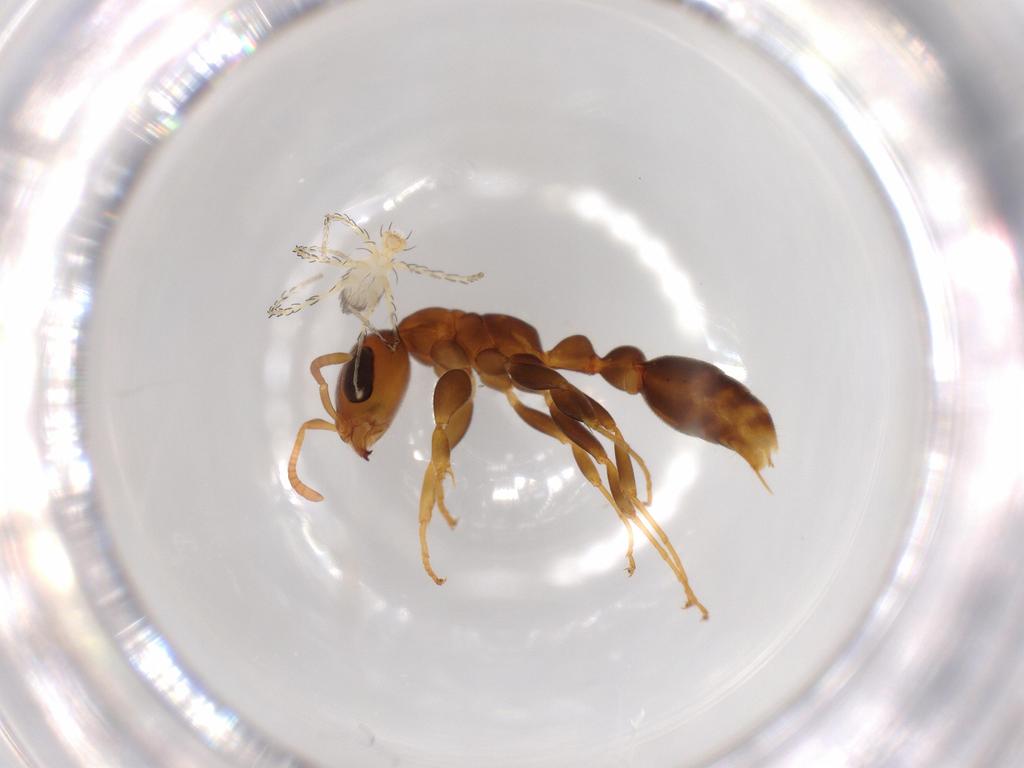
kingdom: Animalia
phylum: Arthropoda
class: Insecta
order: Hymenoptera
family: Formicidae
